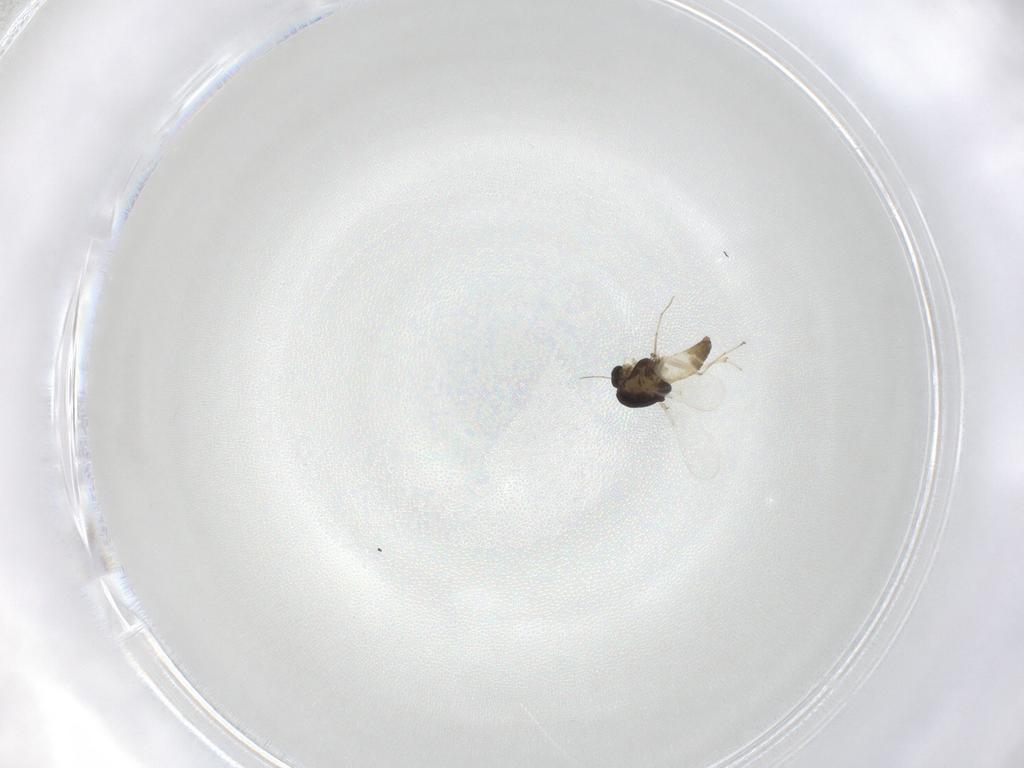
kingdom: Animalia
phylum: Arthropoda
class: Insecta
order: Diptera
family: Chironomidae
